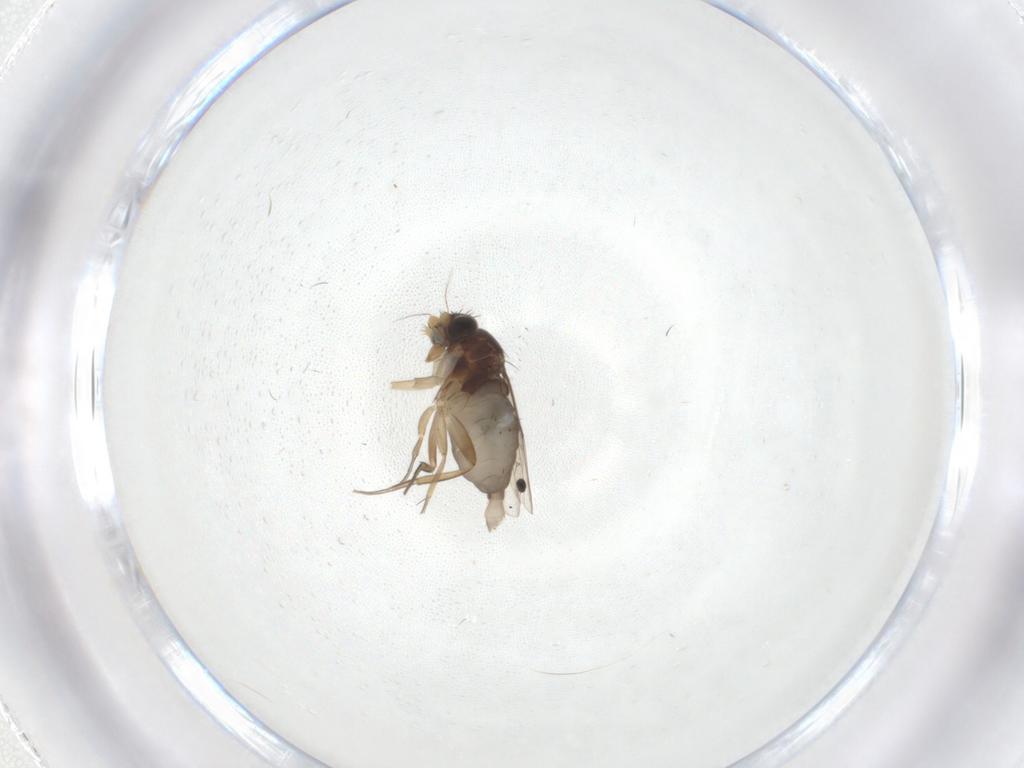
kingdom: Animalia
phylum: Arthropoda
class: Insecta
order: Diptera
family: Phoridae
